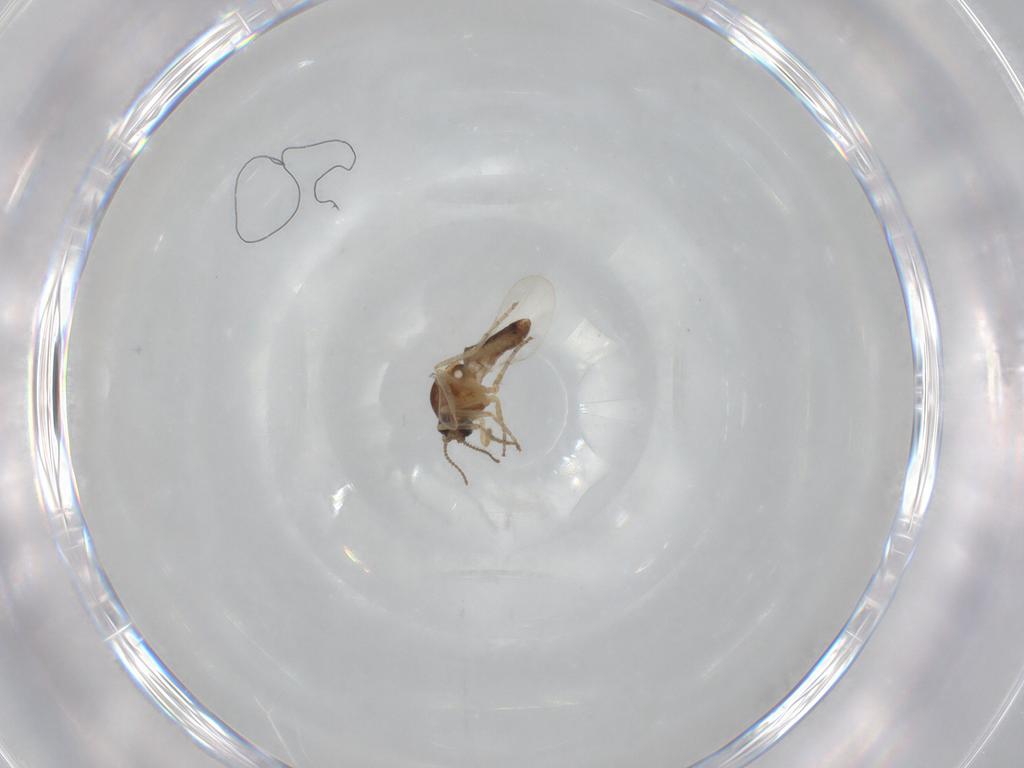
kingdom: Animalia
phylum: Arthropoda
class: Insecta
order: Diptera
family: Ceratopogonidae
